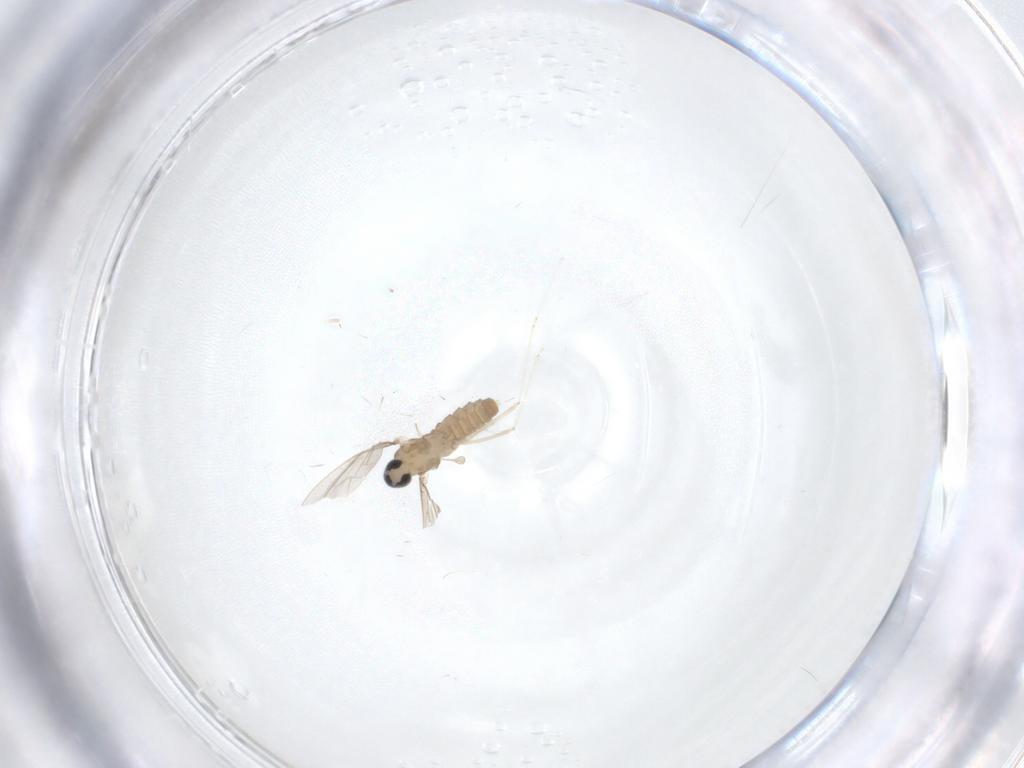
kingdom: Animalia
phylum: Arthropoda
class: Insecta
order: Diptera
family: Cecidomyiidae
